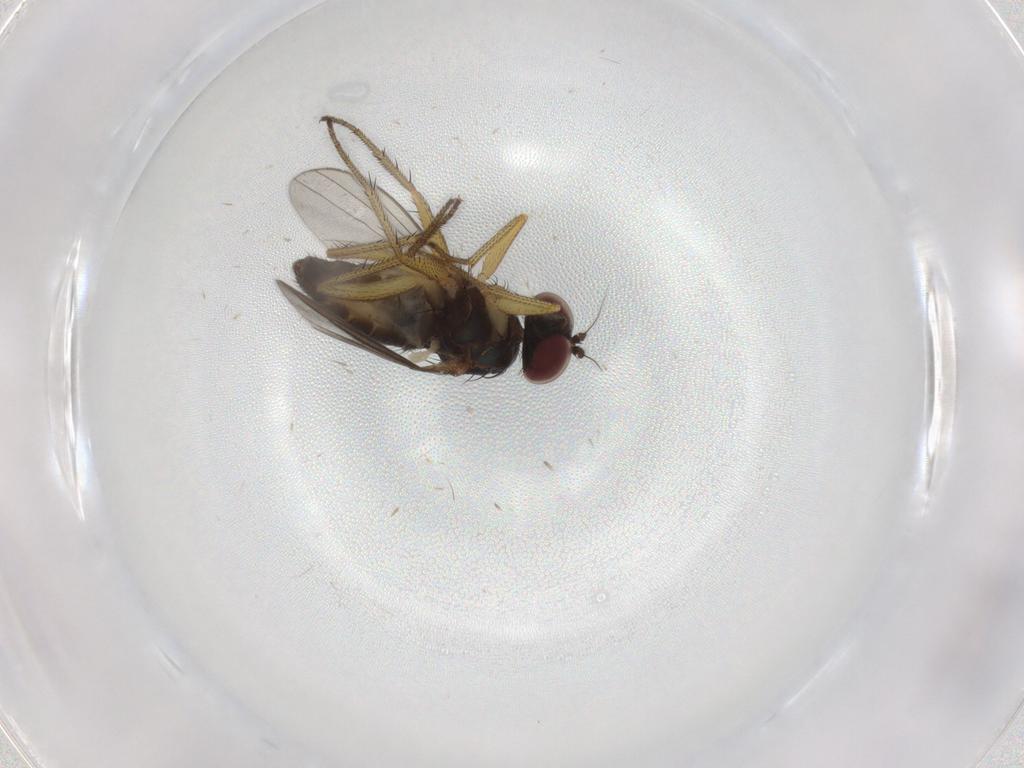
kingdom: Animalia
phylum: Arthropoda
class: Insecta
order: Diptera
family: Dolichopodidae
